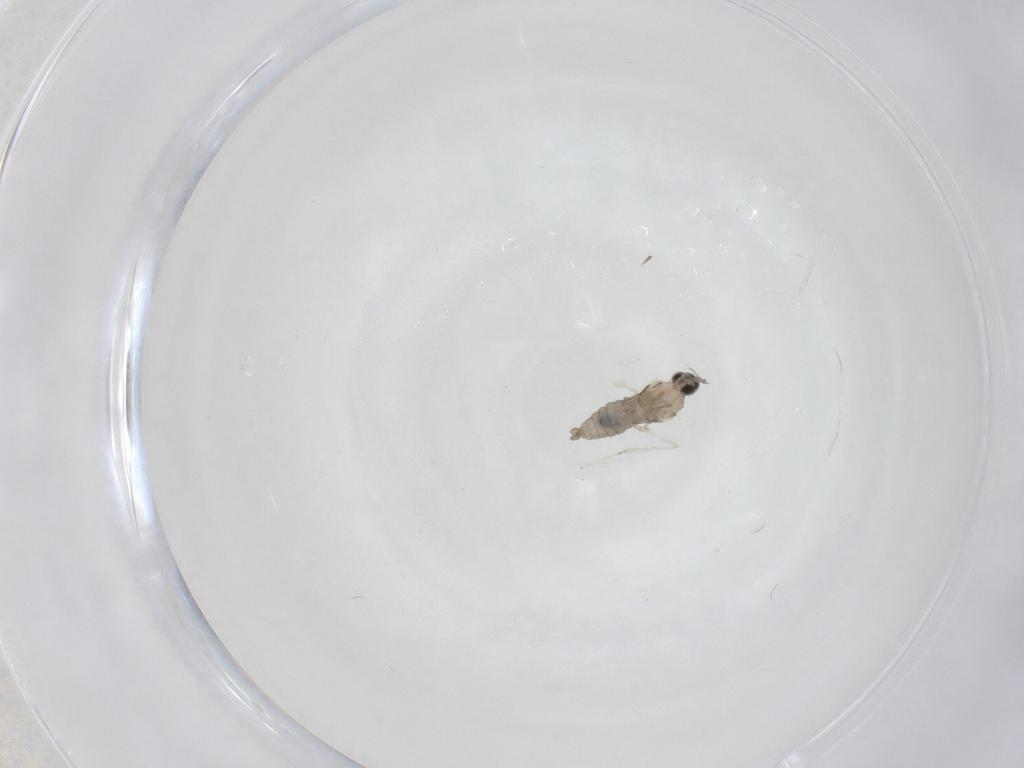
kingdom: Animalia
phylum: Arthropoda
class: Insecta
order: Diptera
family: Cecidomyiidae
